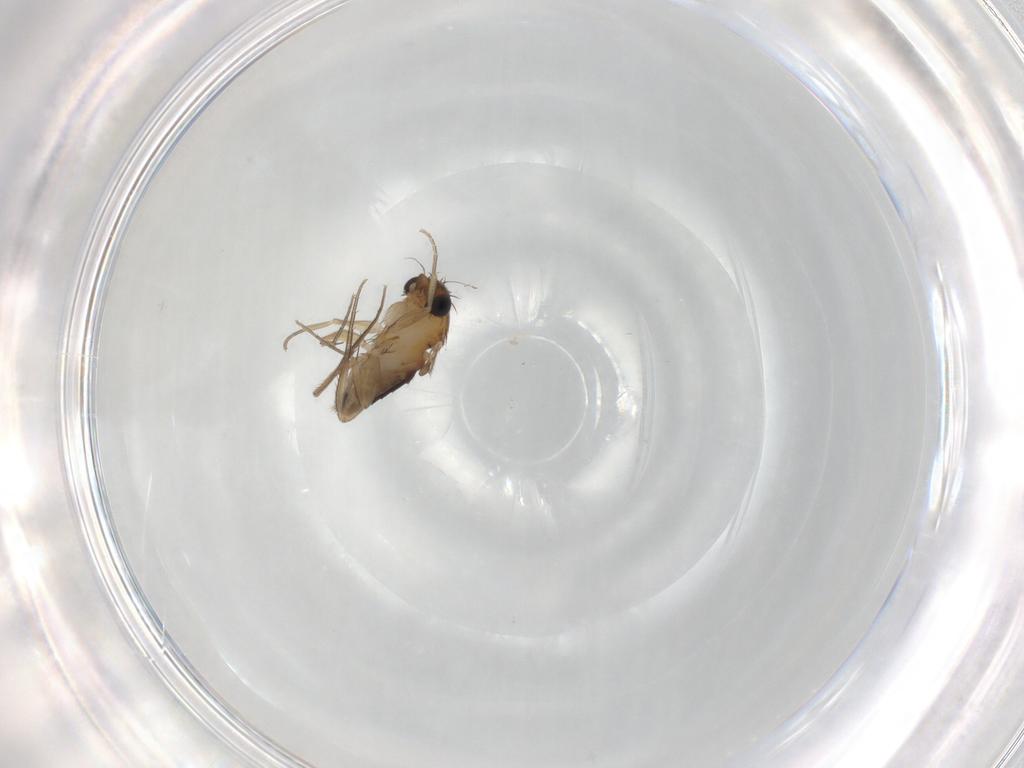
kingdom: Animalia
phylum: Arthropoda
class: Insecta
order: Diptera
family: Phoridae
